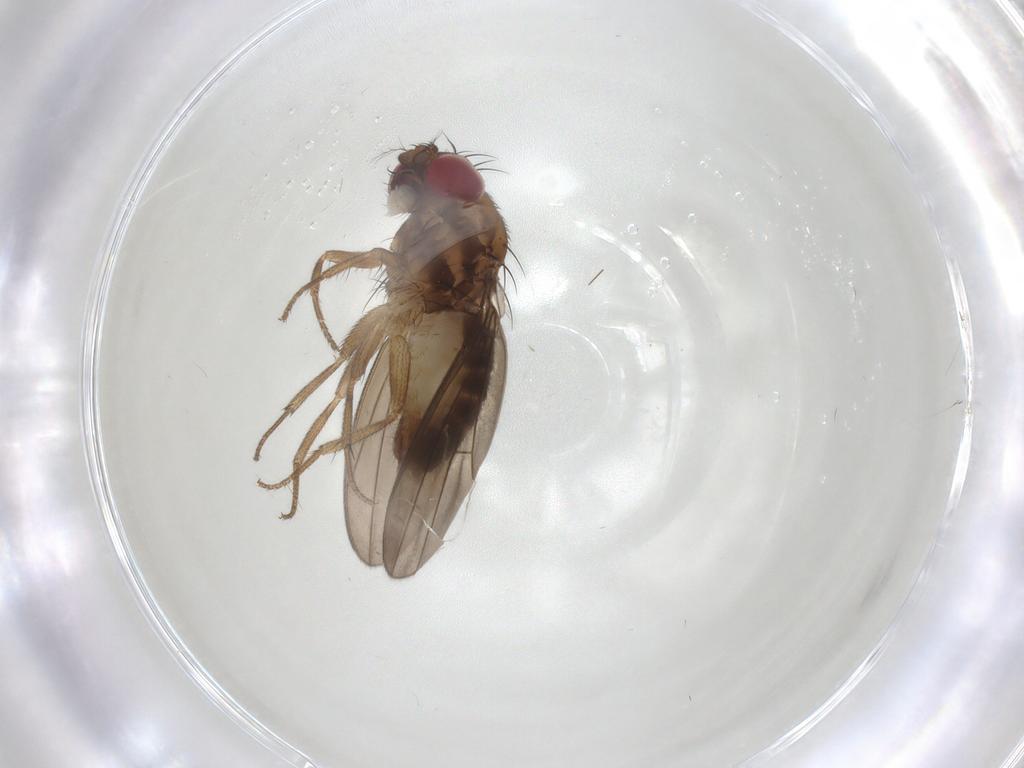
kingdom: Animalia
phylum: Arthropoda
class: Insecta
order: Diptera
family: Drosophilidae
